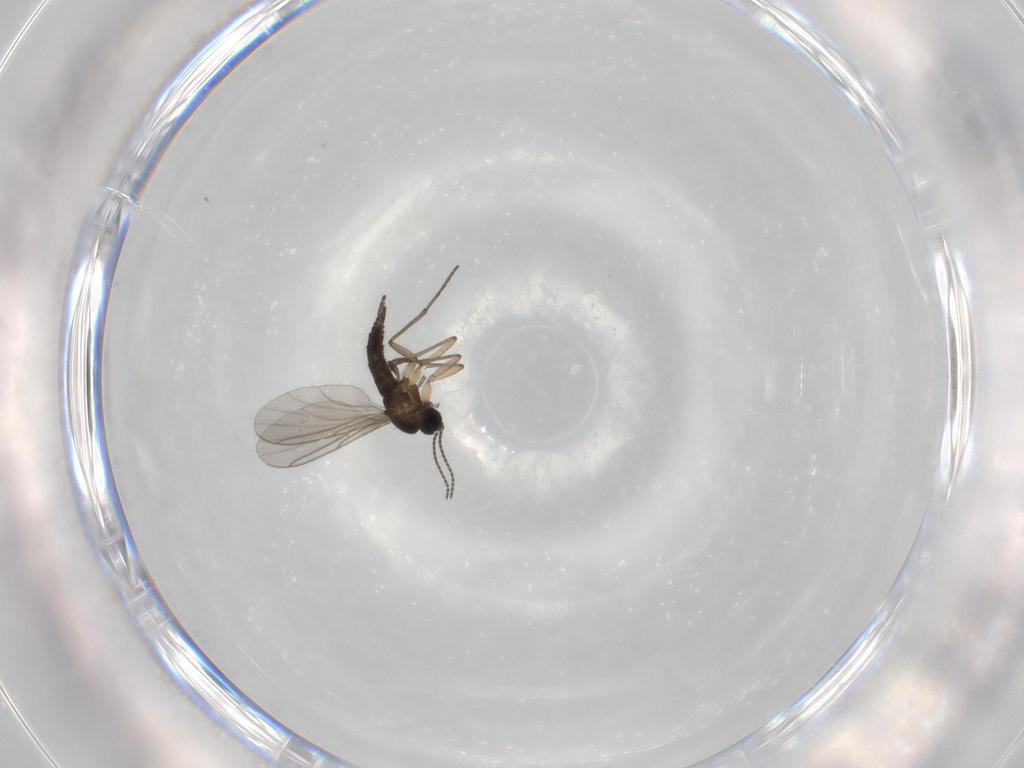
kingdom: Animalia
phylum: Arthropoda
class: Insecta
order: Diptera
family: Sciaridae
